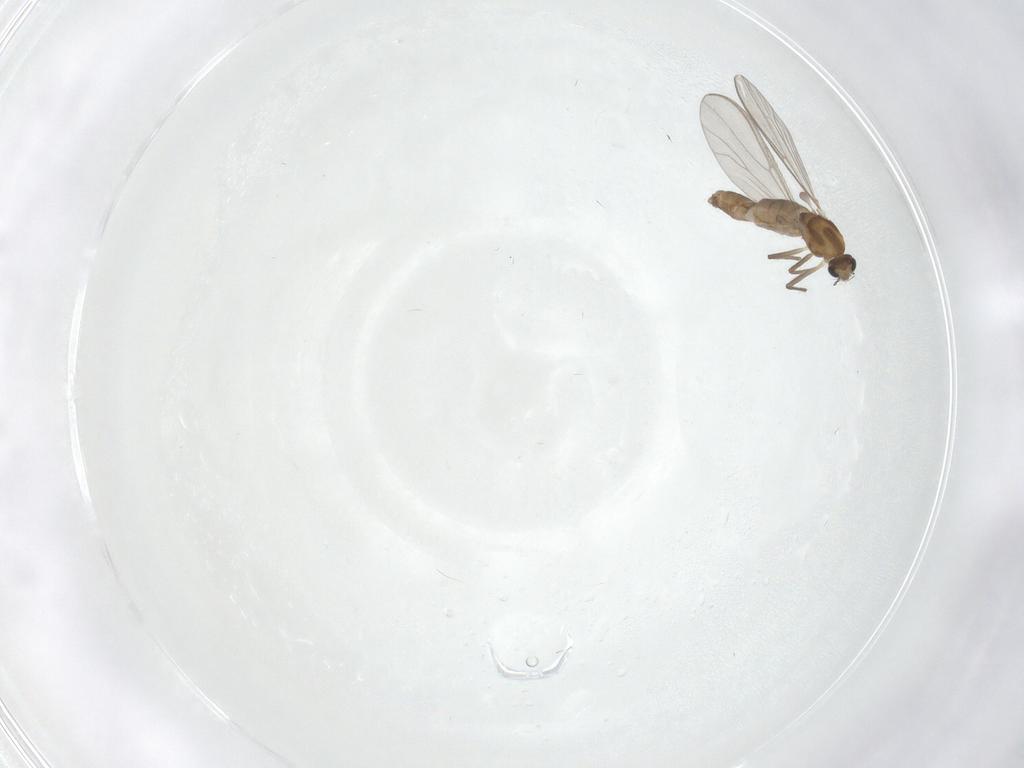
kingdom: Animalia
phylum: Arthropoda
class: Insecta
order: Diptera
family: Chironomidae
